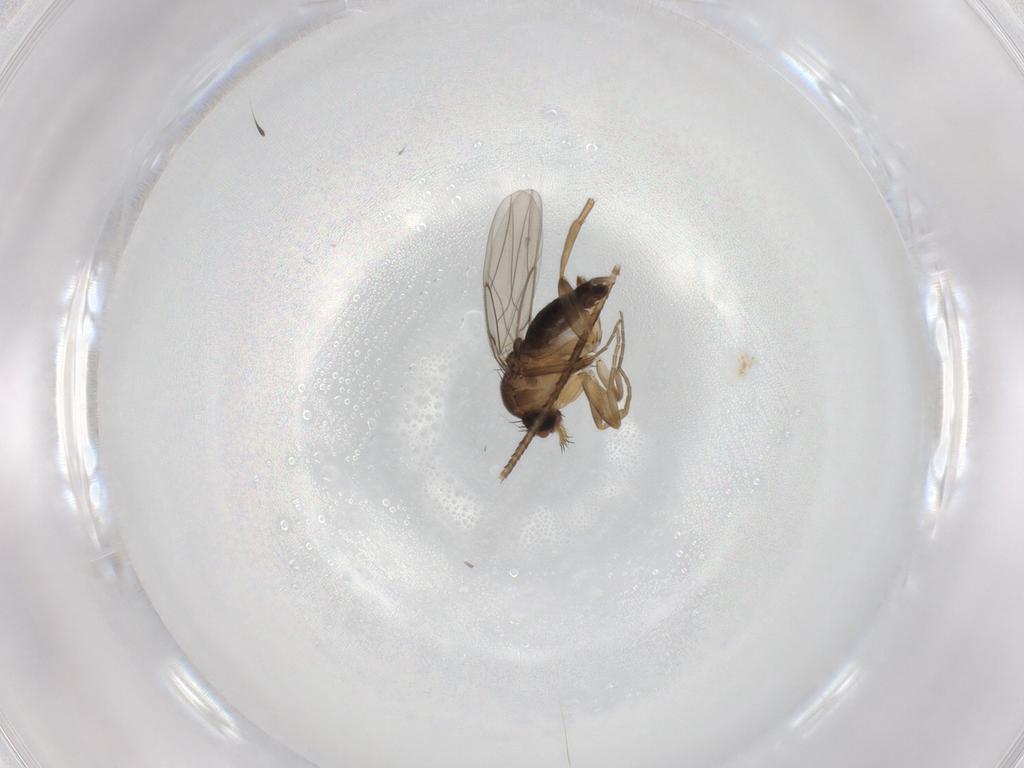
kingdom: Animalia
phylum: Arthropoda
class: Insecta
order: Diptera
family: Phoridae
